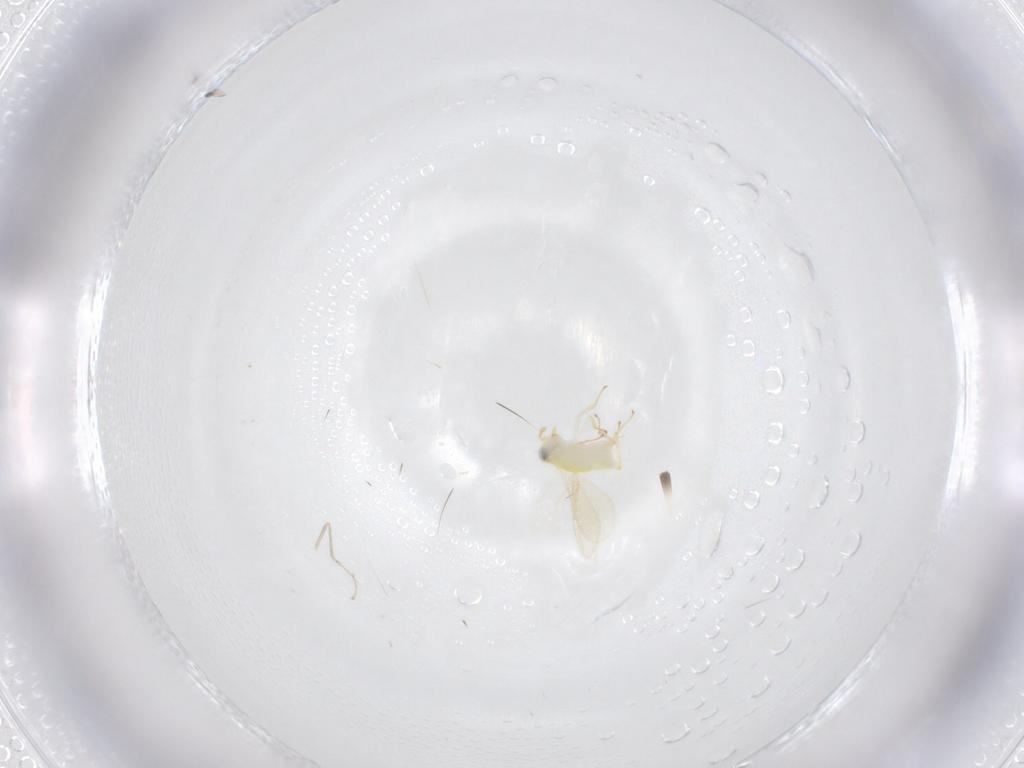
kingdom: Animalia
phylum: Arthropoda
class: Insecta
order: Hymenoptera
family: Aphelinidae
